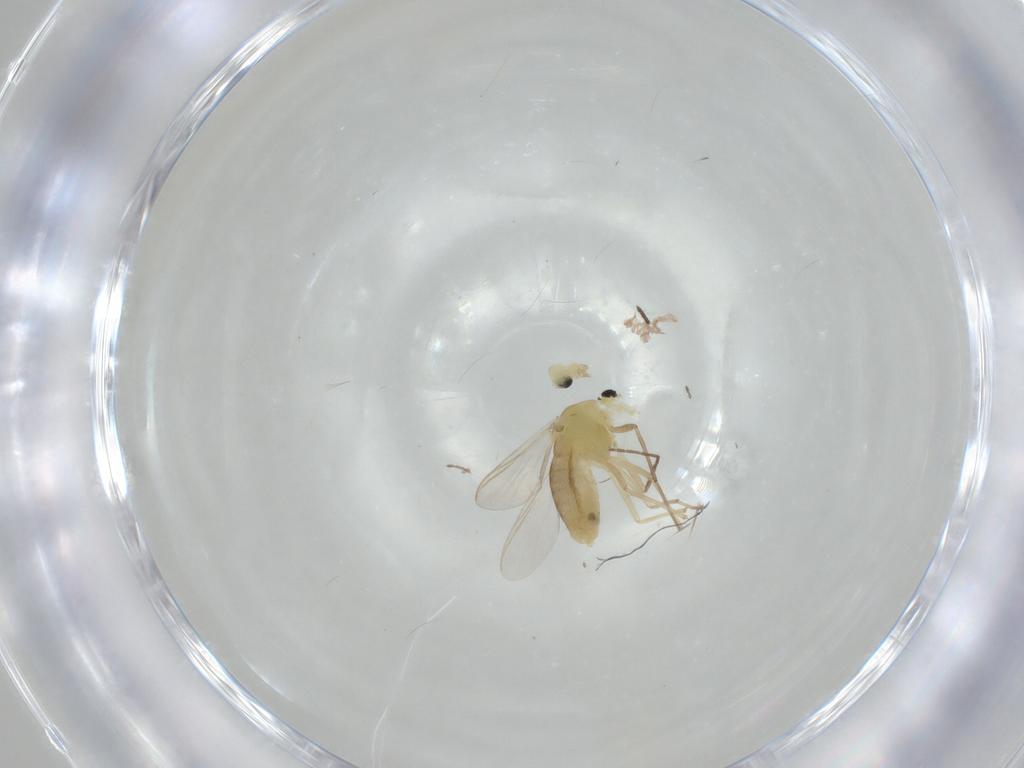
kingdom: Animalia
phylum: Arthropoda
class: Insecta
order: Diptera
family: Chironomidae
